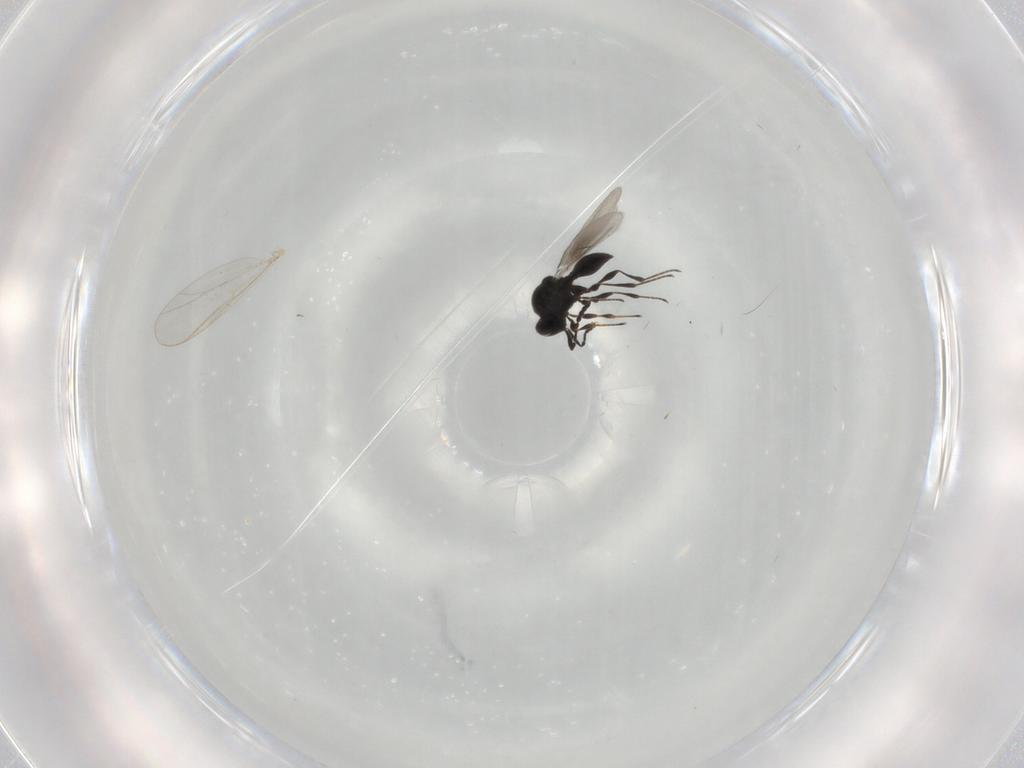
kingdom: Animalia
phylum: Arthropoda
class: Insecta
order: Hymenoptera
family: Platygastridae
